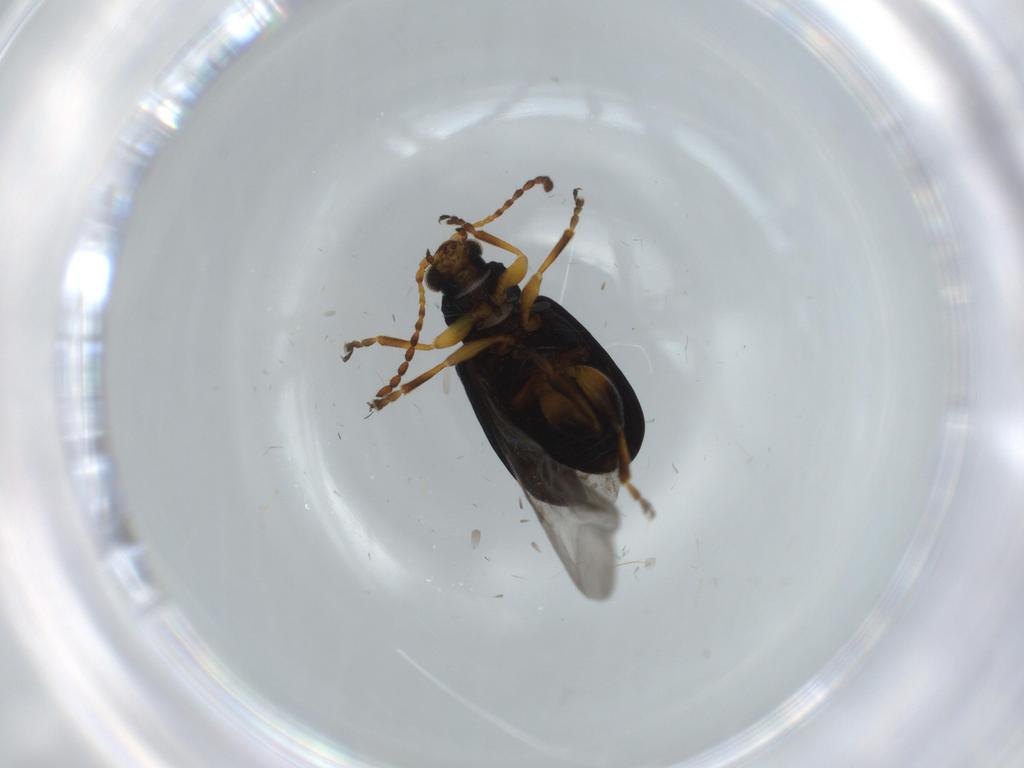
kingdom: Animalia
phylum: Arthropoda
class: Insecta
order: Coleoptera
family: Chrysomelidae
